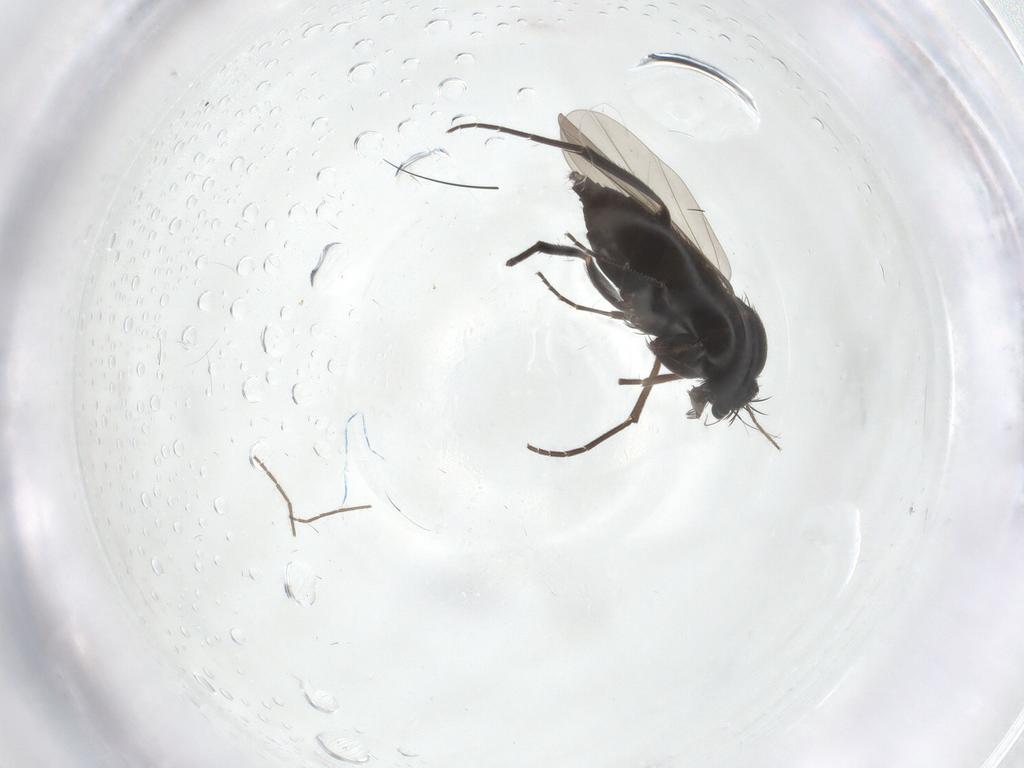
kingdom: Animalia
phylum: Arthropoda
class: Insecta
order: Diptera
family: Phoridae
